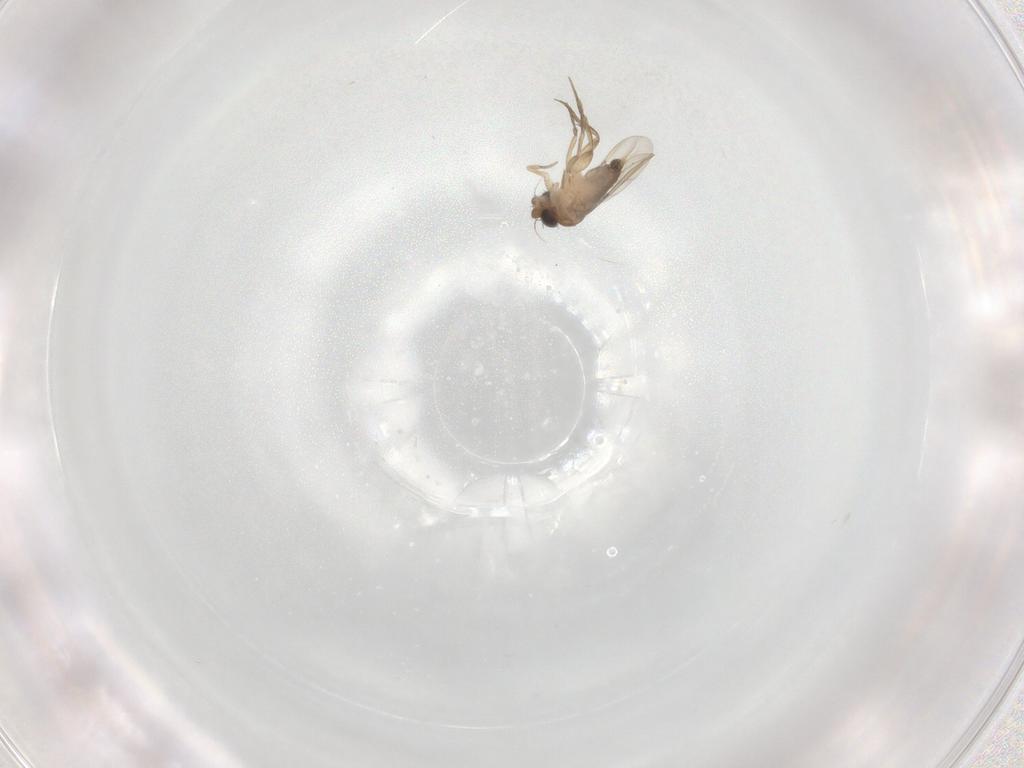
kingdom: Animalia
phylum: Arthropoda
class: Insecta
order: Diptera
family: Phoridae
